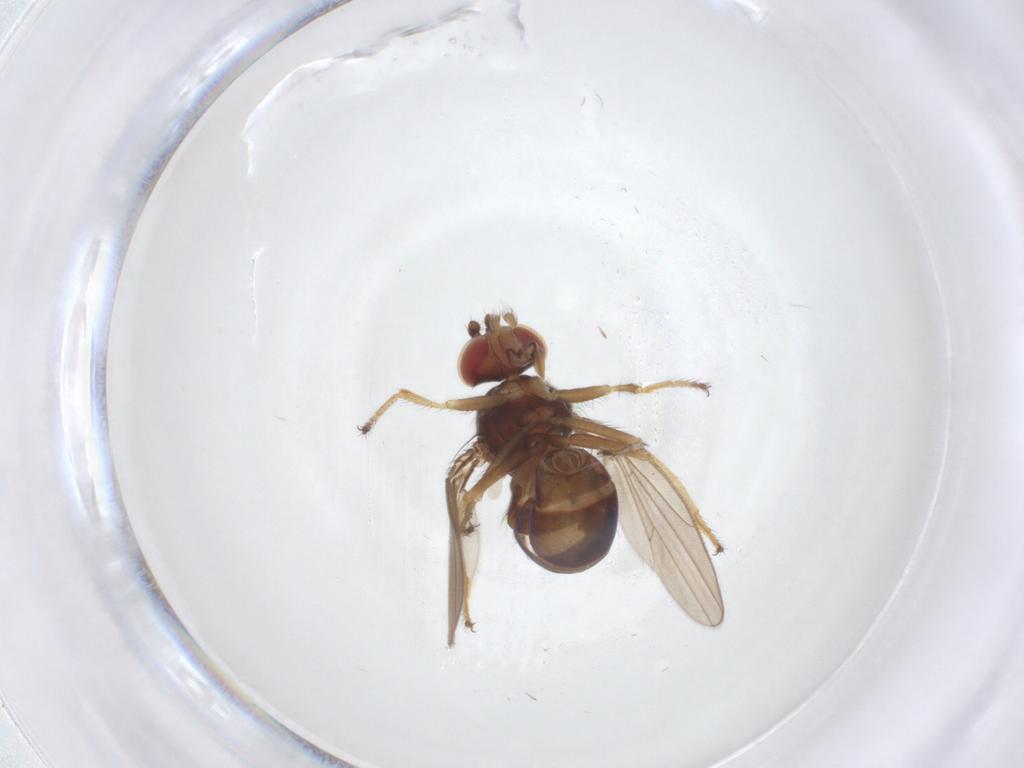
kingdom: Animalia
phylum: Arthropoda
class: Insecta
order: Diptera
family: Ephydridae
